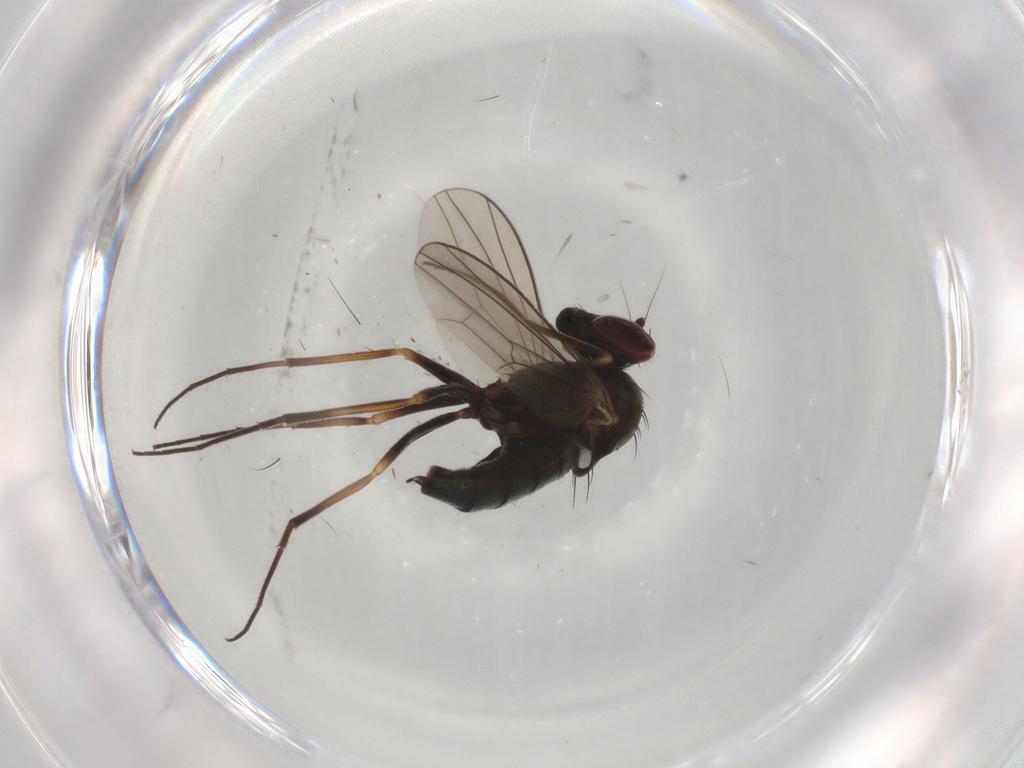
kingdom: Animalia
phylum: Arthropoda
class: Insecta
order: Diptera
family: Dolichopodidae
